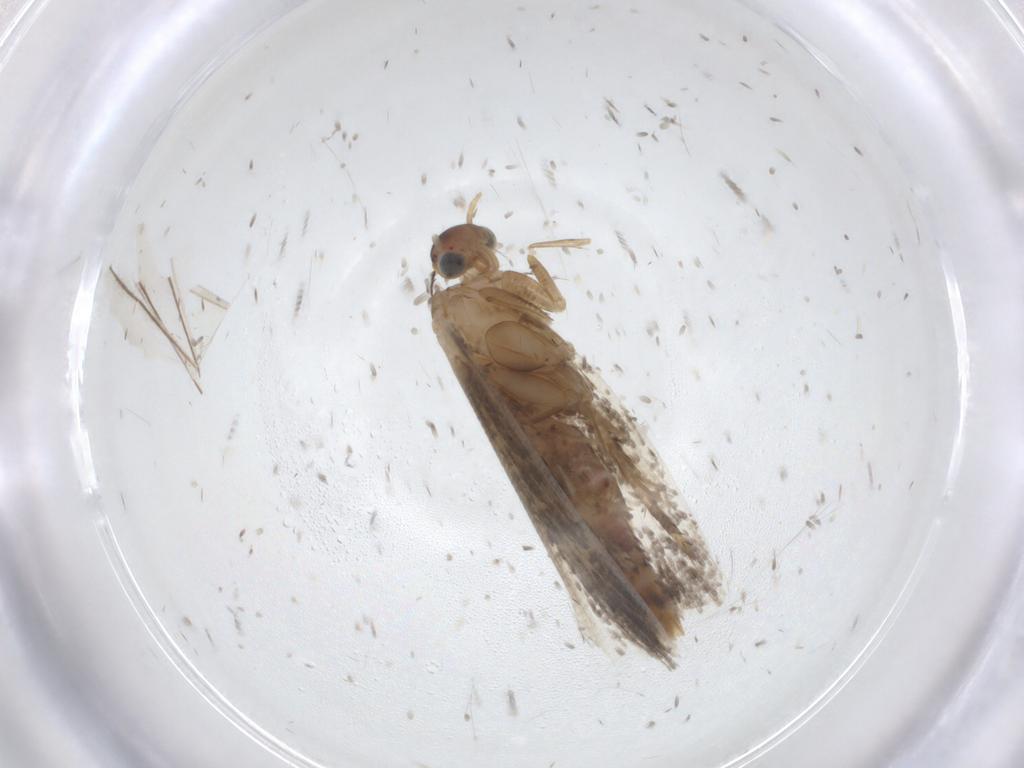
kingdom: Animalia
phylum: Arthropoda
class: Insecta
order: Lepidoptera
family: Glyphipterigidae
